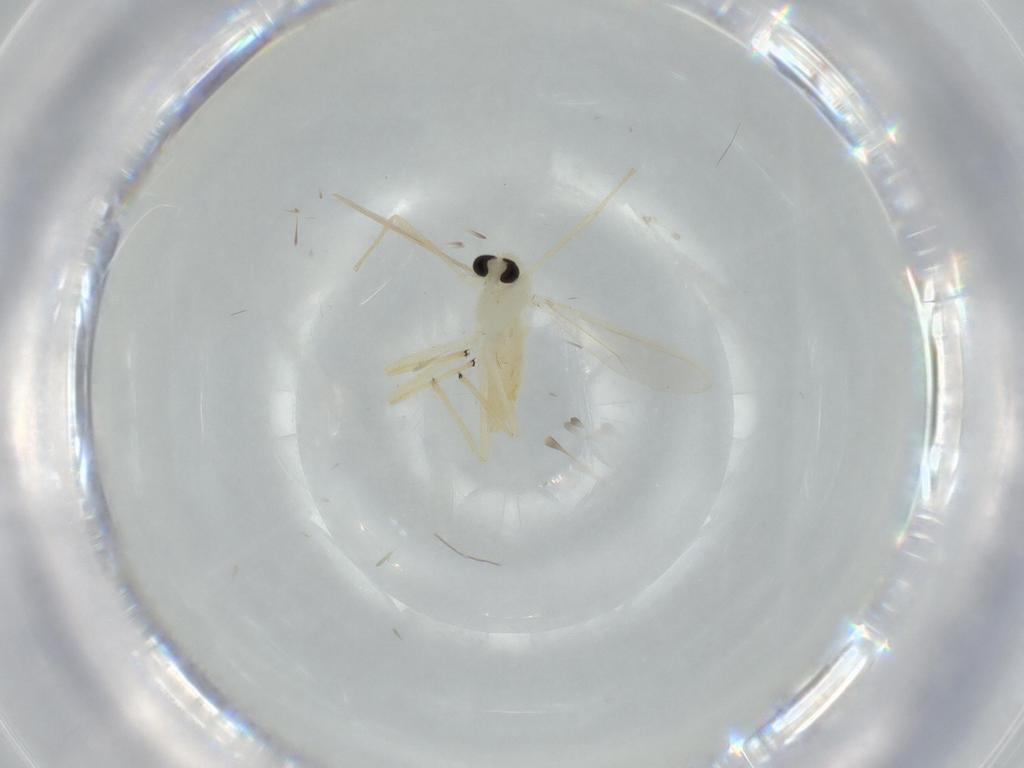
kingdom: Animalia
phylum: Arthropoda
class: Insecta
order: Diptera
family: Chironomidae
